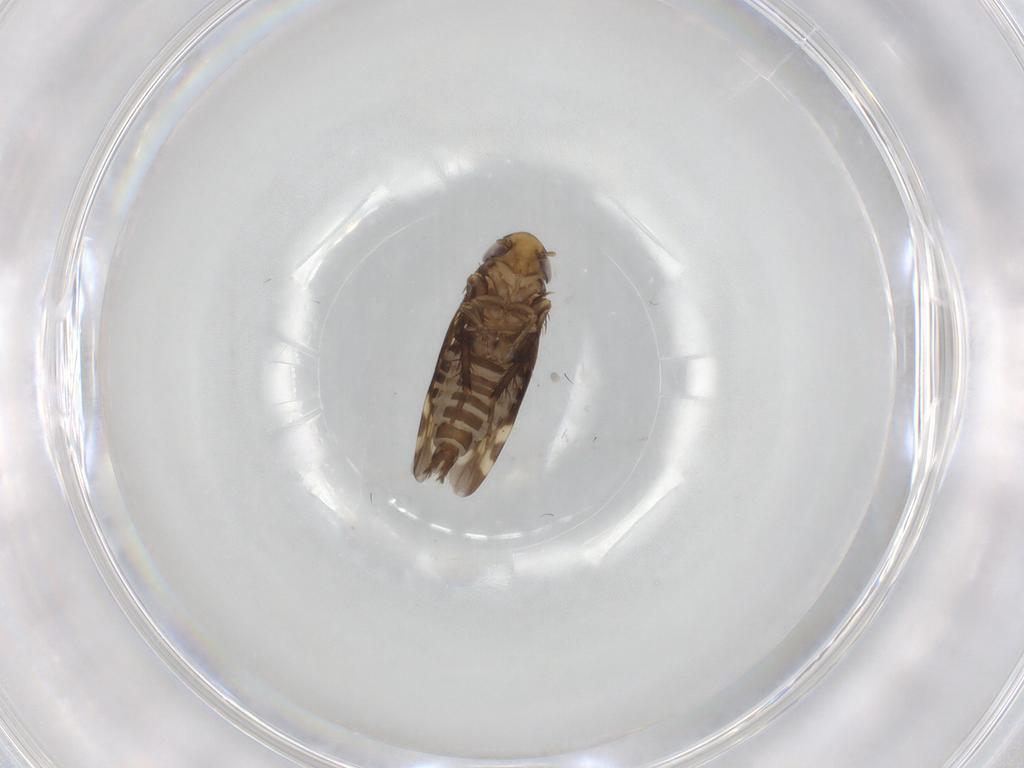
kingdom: Animalia
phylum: Arthropoda
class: Insecta
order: Hemiptera
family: Cicadellidae
